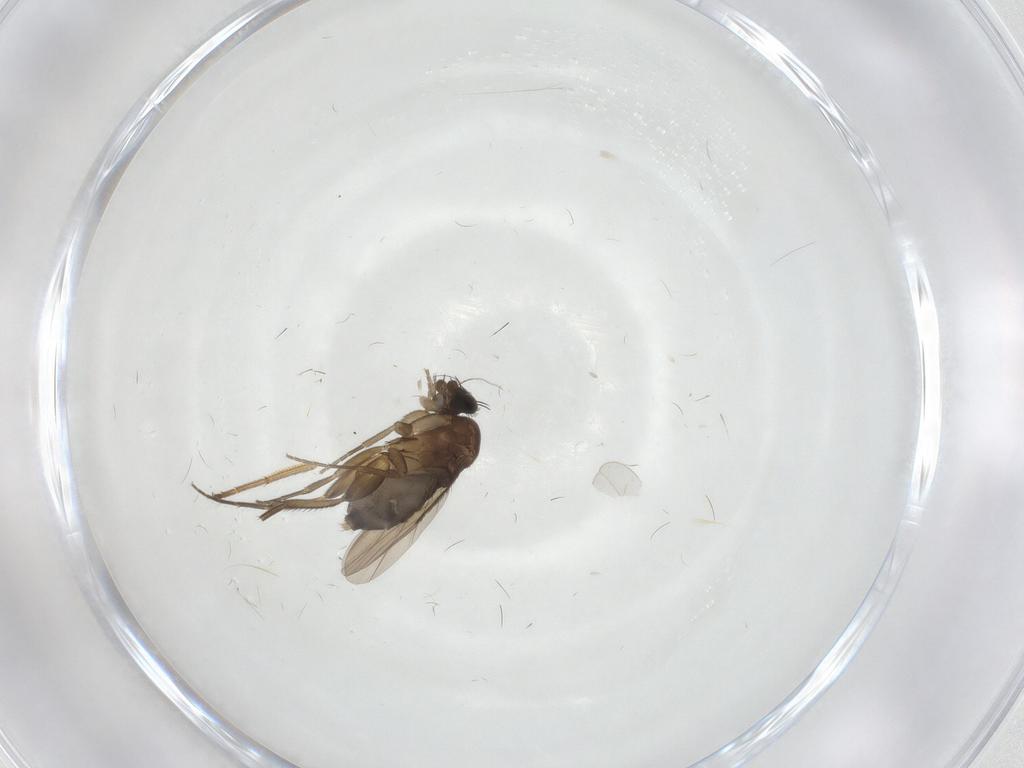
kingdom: Animalia
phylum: Arthropoda
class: Insecta
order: Diptera
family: Phoridae
